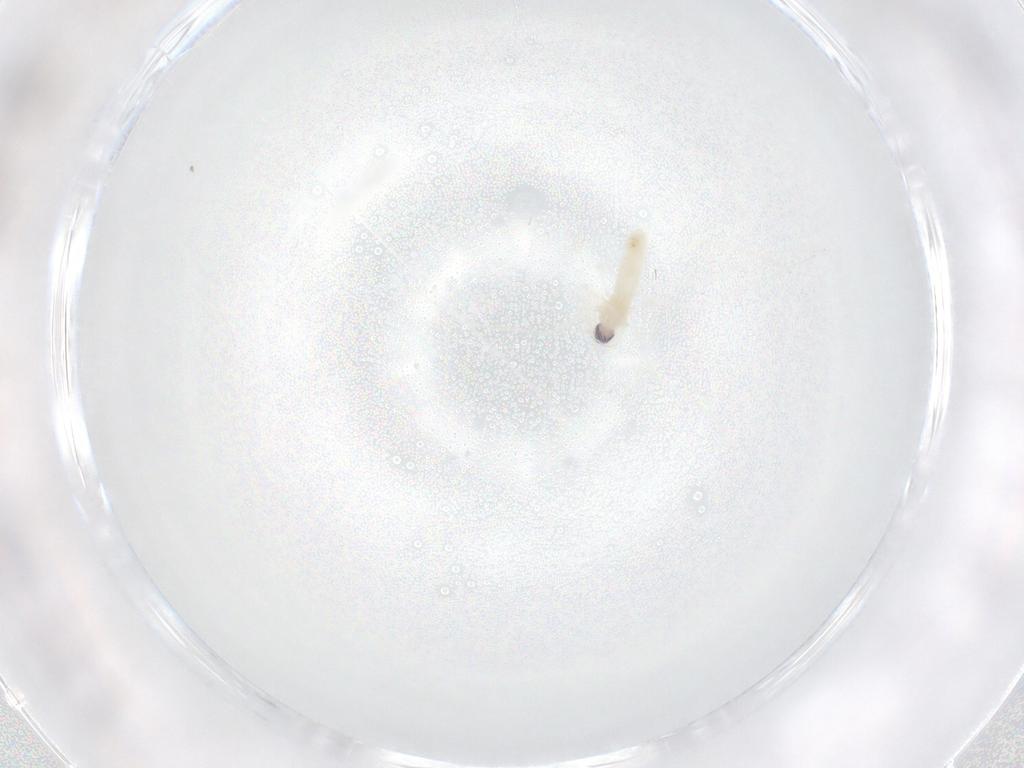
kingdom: Animalia
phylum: Arthropoda
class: Insecta
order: Diptera
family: Cecidomyiidae
